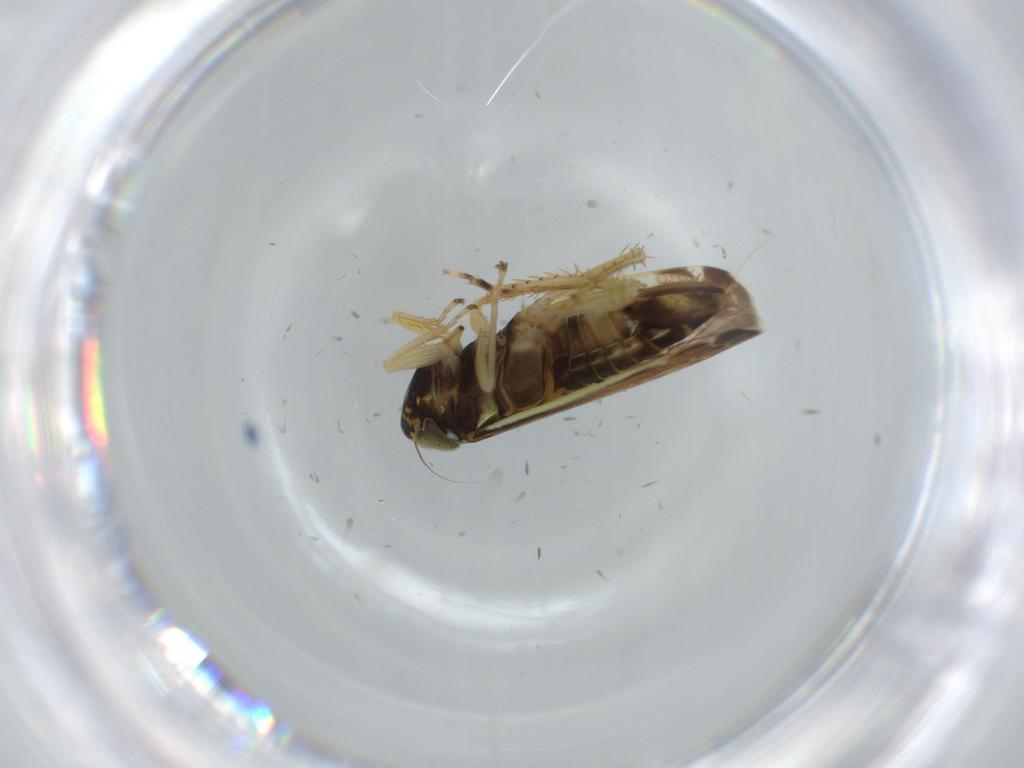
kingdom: Animalia
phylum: Arthropoda
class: Insecta
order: Hemiptera
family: Cicadellidae
